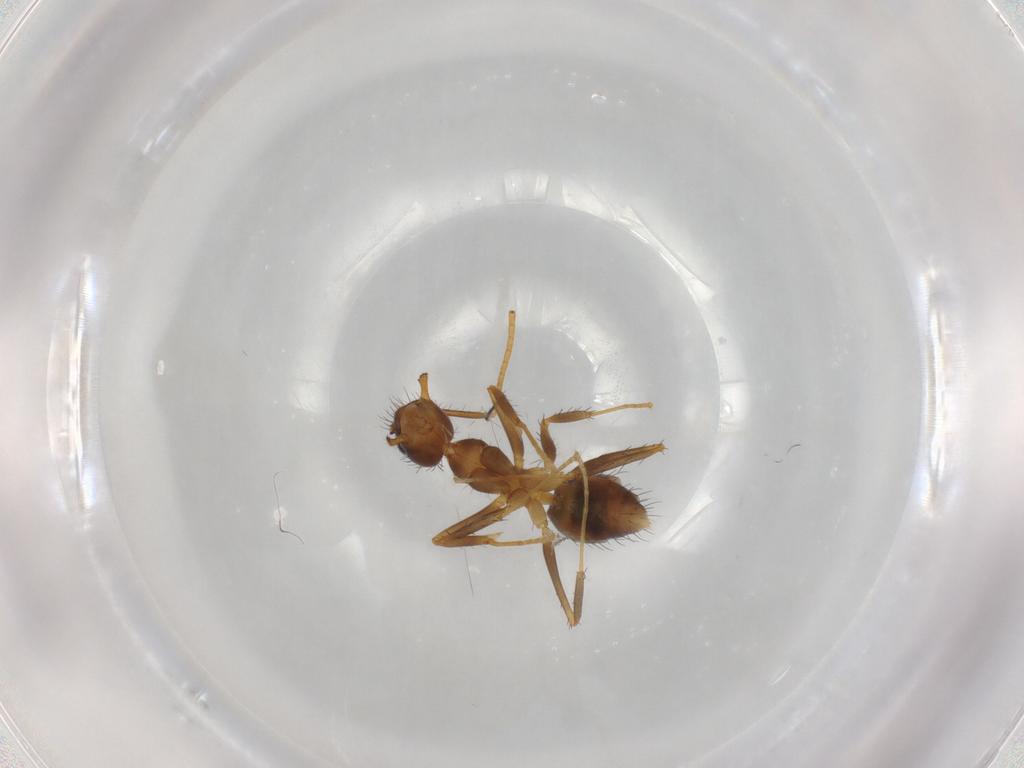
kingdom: Animalia
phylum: Arthropoda
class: Insecta
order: Hymenoptera
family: Formicidae
